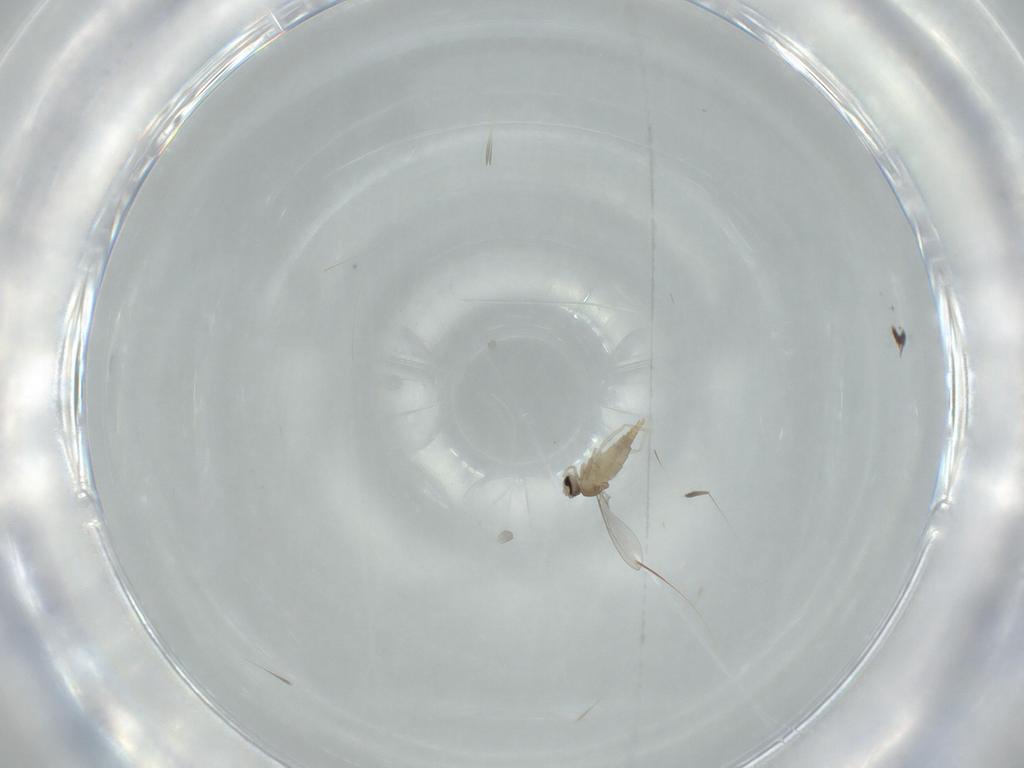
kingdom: Animalia
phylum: Arthropoda
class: Insecta
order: Diptera
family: Cecidomyiidae
